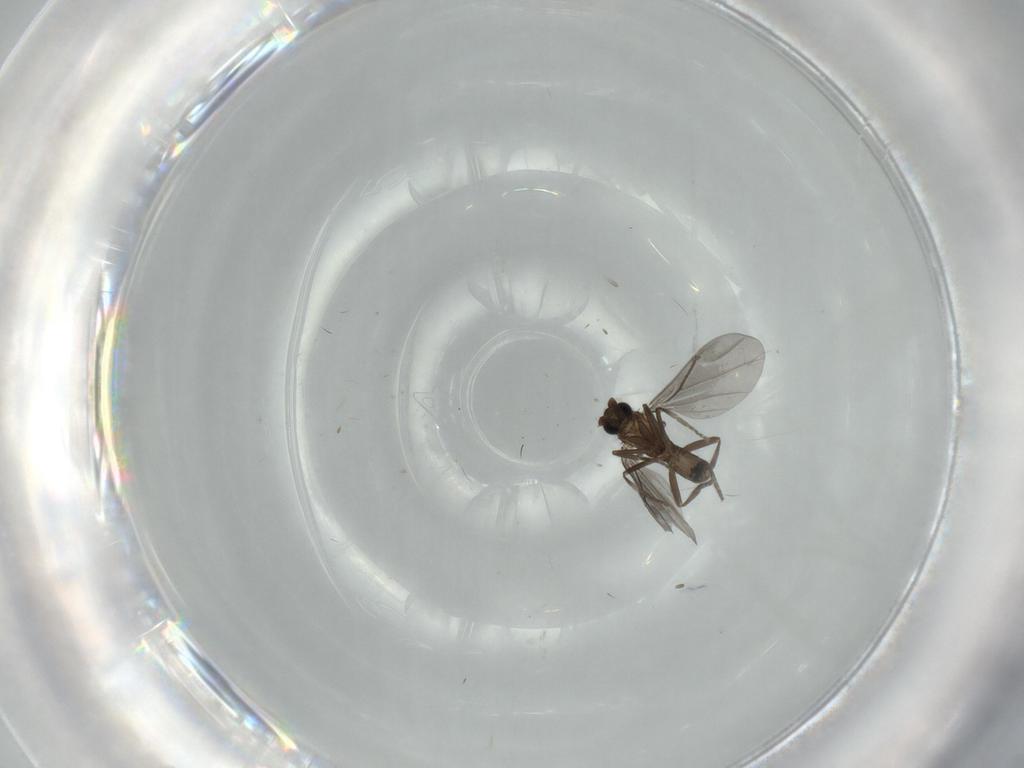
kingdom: Animalia
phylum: Arthropoda
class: Insecta
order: Diptera
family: Phoridae
